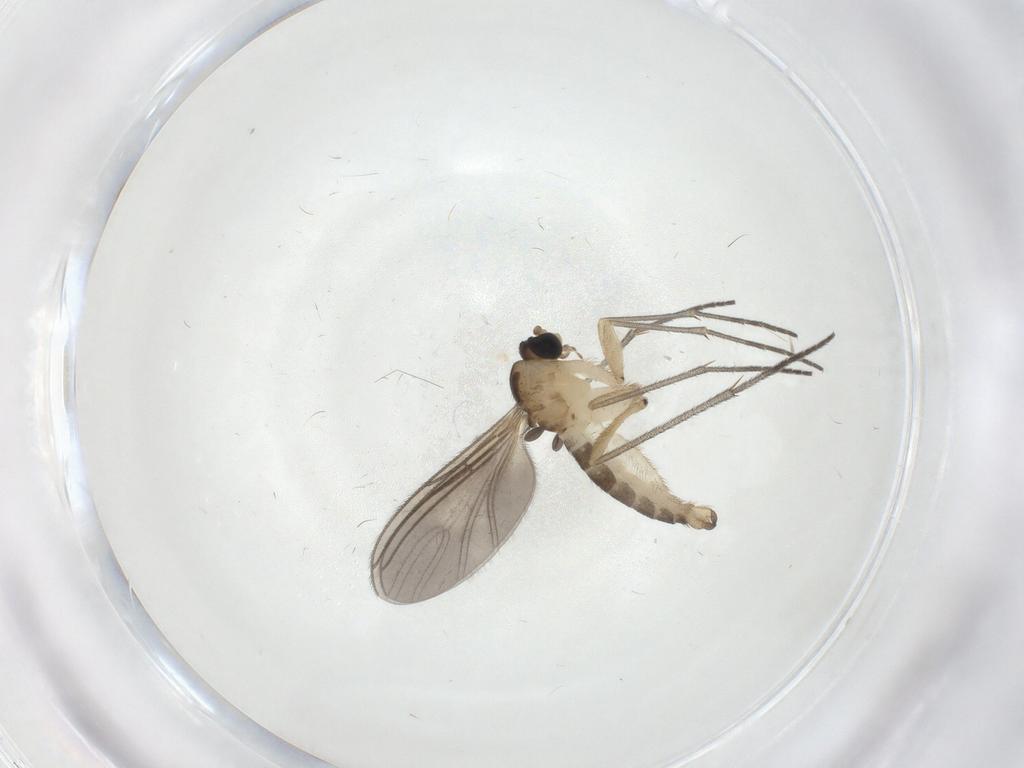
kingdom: Animalia
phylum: Arthropoda
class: Insecta
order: Diptera
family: Sciaridae
